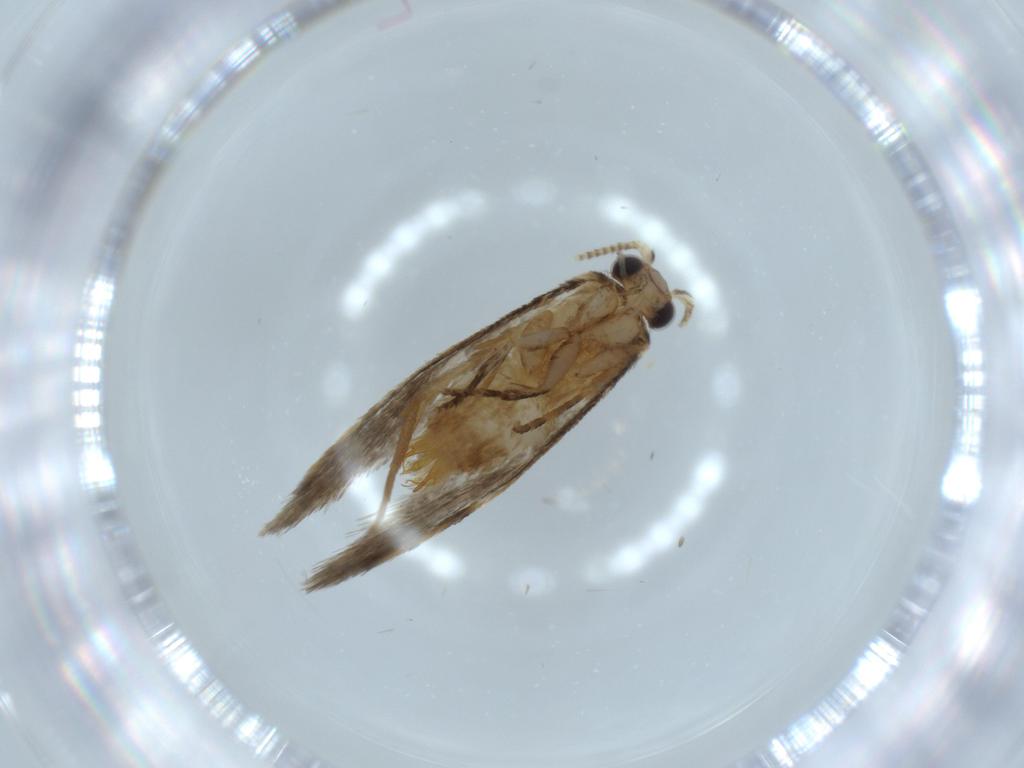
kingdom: Animalia
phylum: Arthropoda
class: Insecta
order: Lepidoptera
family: Tineidae
